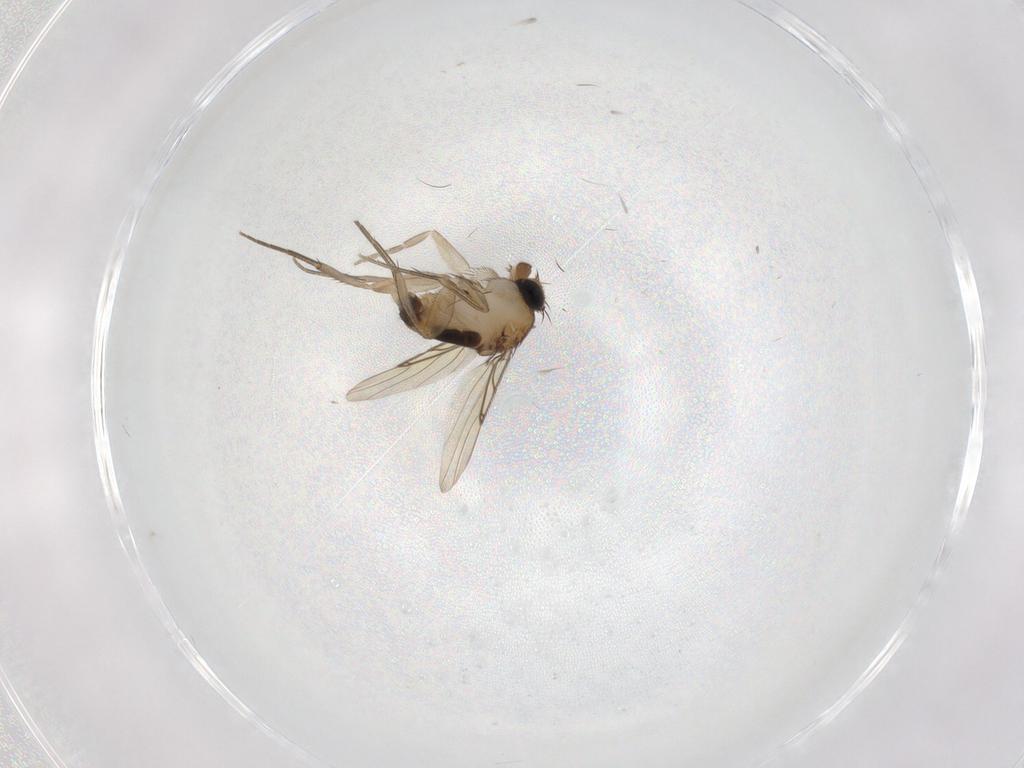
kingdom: Animalia
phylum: Arthropoda
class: Insecta
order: Diptera
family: Phoridae
